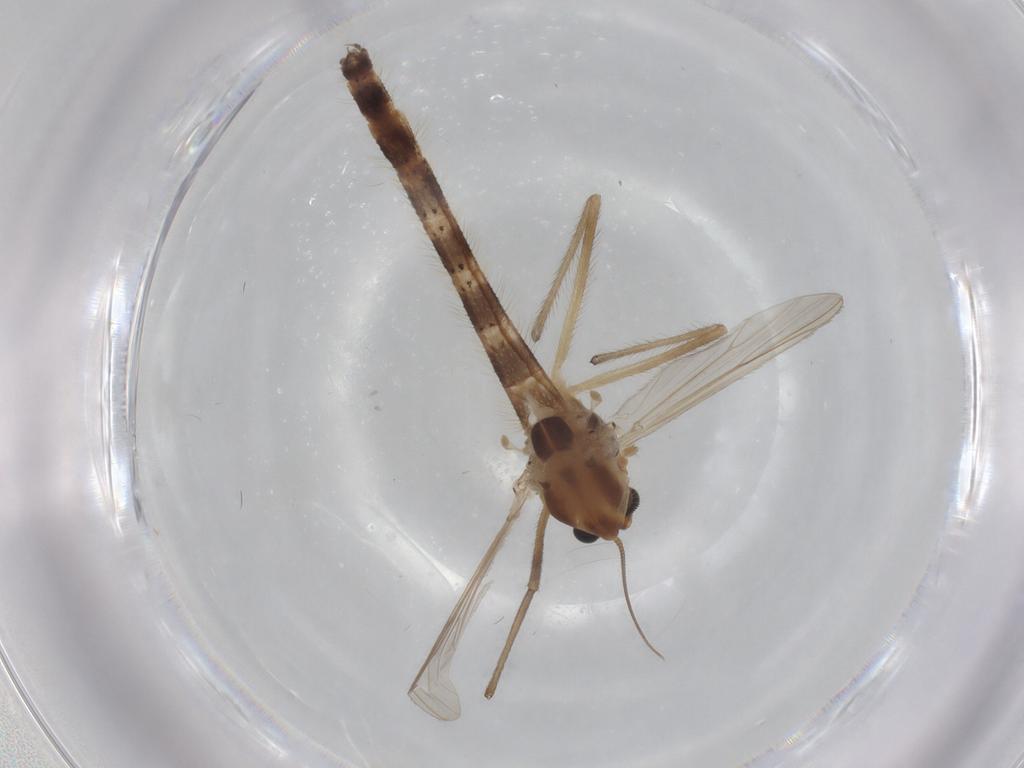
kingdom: Animalia
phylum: Arthropoda
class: Insecta
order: Diptera
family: Chironomidae
